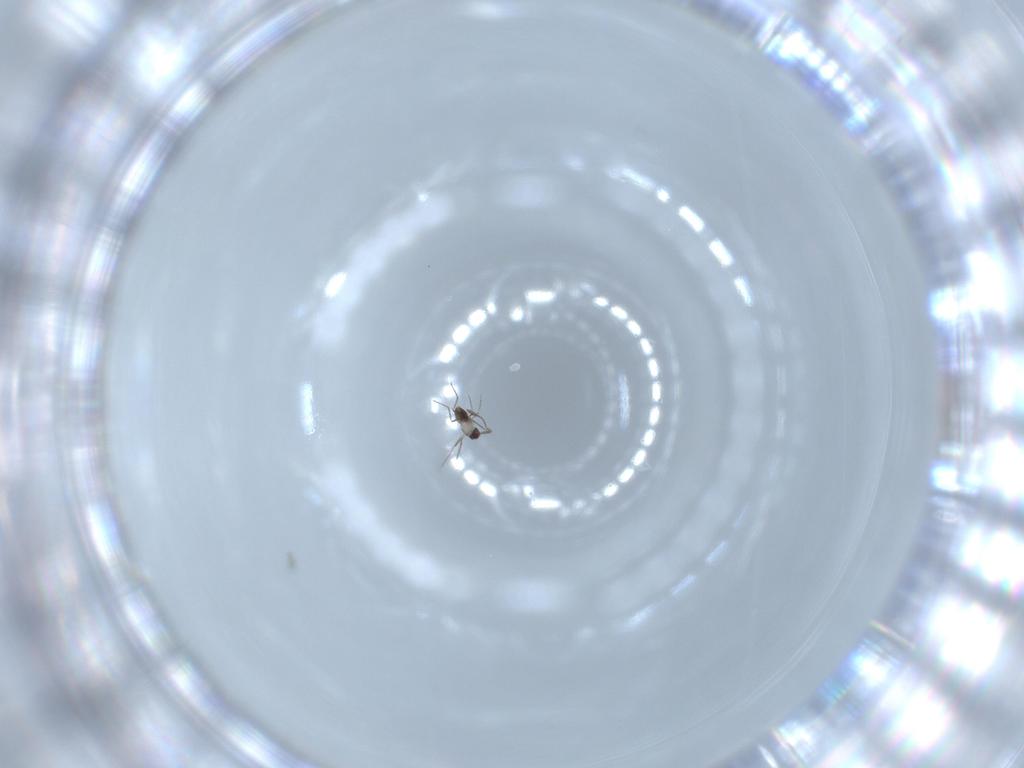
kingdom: Animalia
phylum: Arthropoda
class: Insecta
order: Hymenoptera
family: Mymaridae
